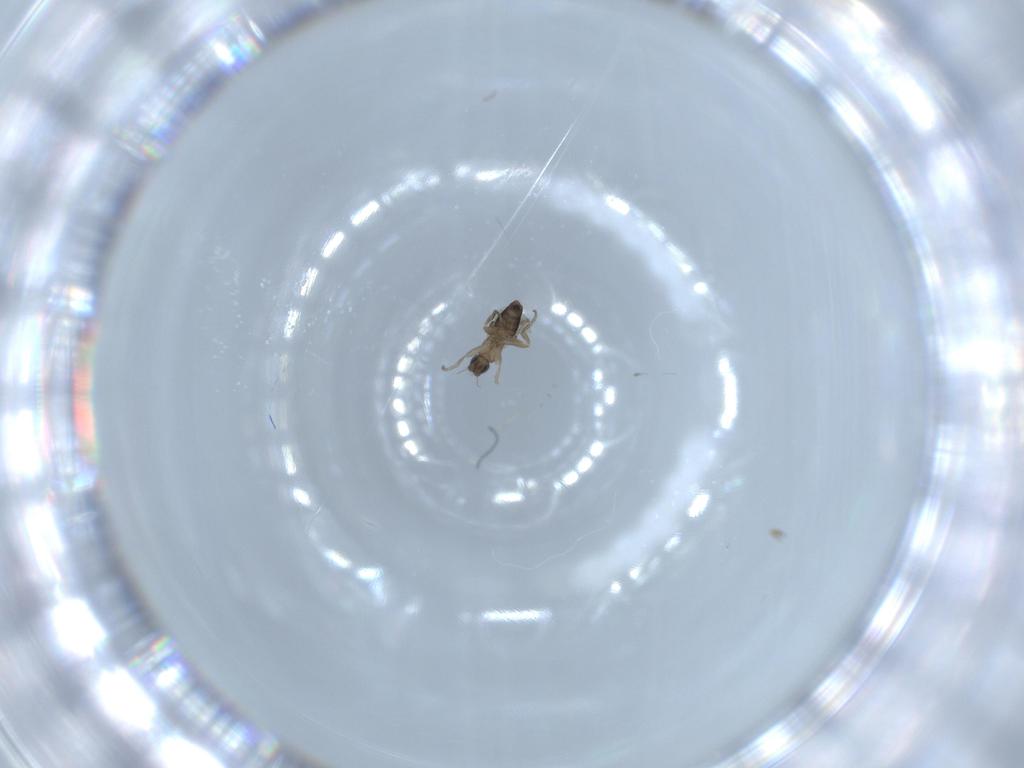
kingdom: Animalia
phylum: Arthropoda
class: Insecta
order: Diptera
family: Phoridae
